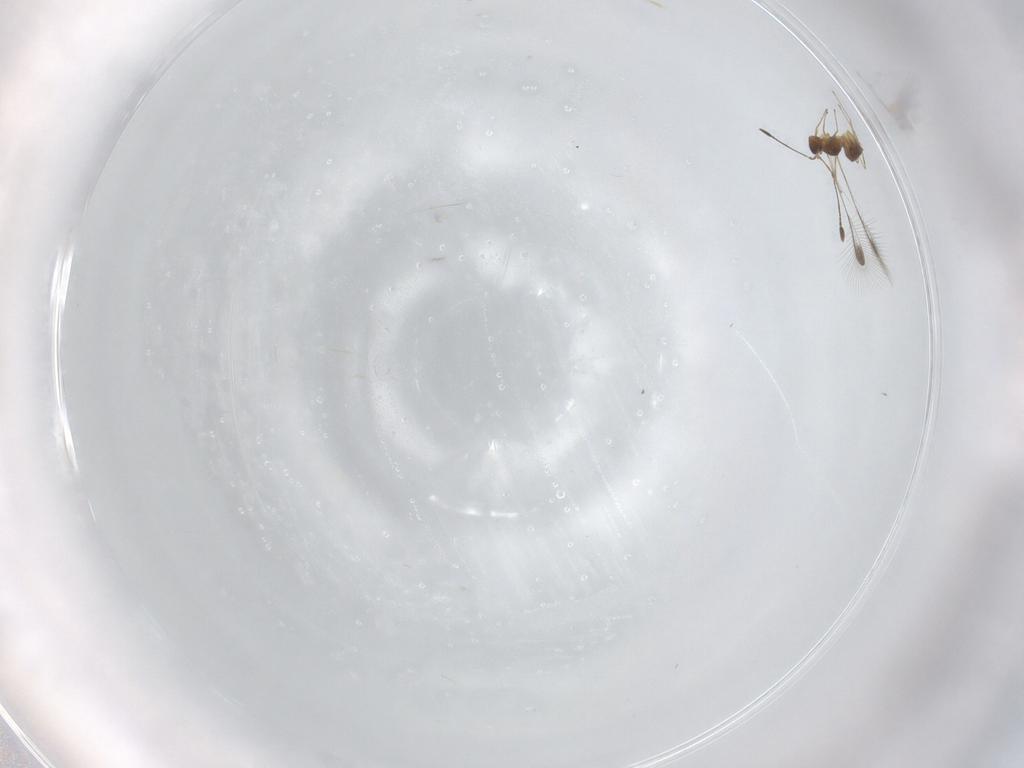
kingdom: Animalia
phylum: Arthropoda
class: Insecta
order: Hymenoptera
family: Mymaridae
